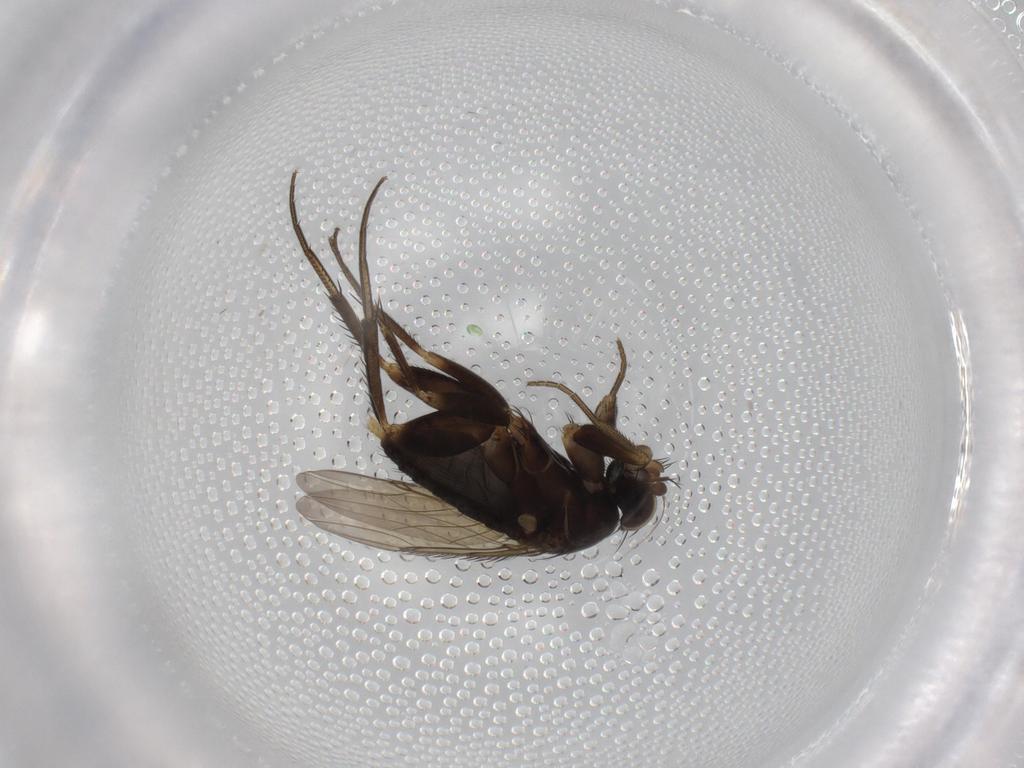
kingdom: Animalia
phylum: Arthropoda
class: Insecta
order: Diptera
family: Phoridae
